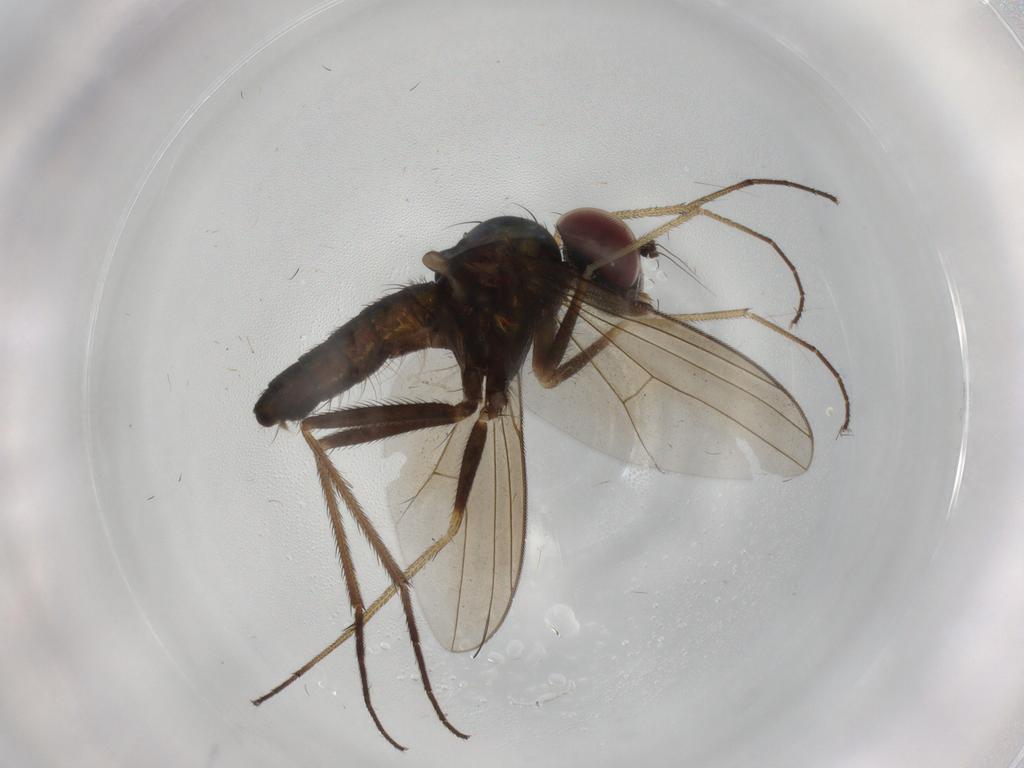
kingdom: Animalia
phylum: Arthropoda
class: Insecta
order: Diptera
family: Dolichopodidae
